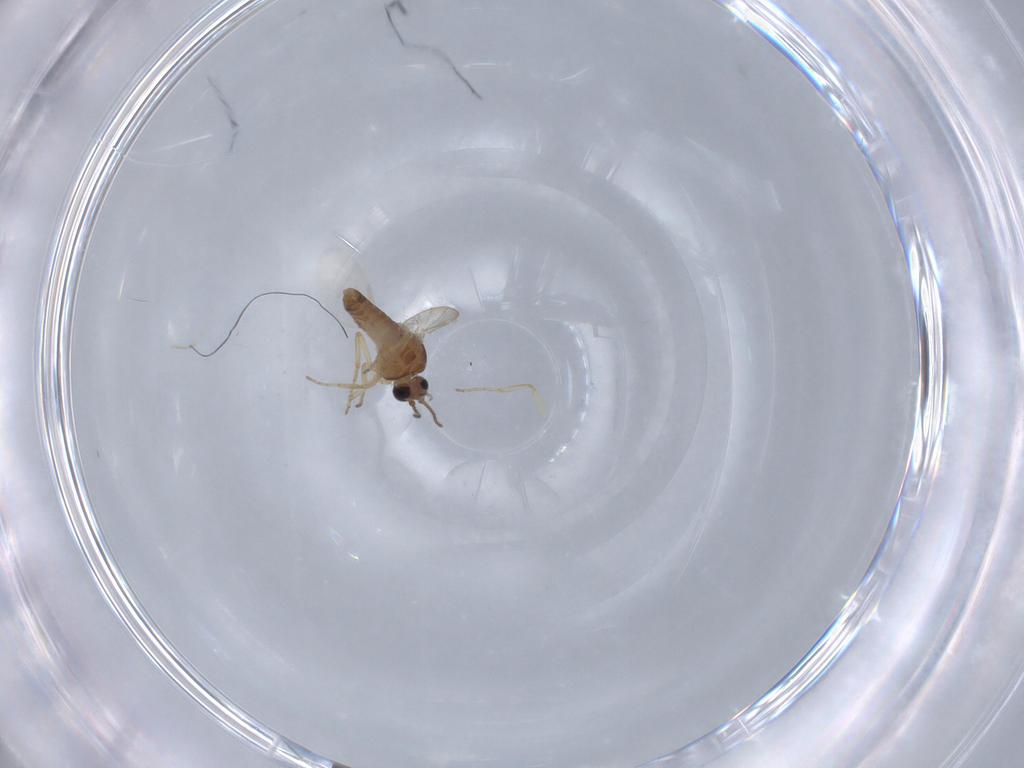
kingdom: Animalia
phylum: Arthropoda
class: Insecta
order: Diptera
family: Ceratopogonidae
